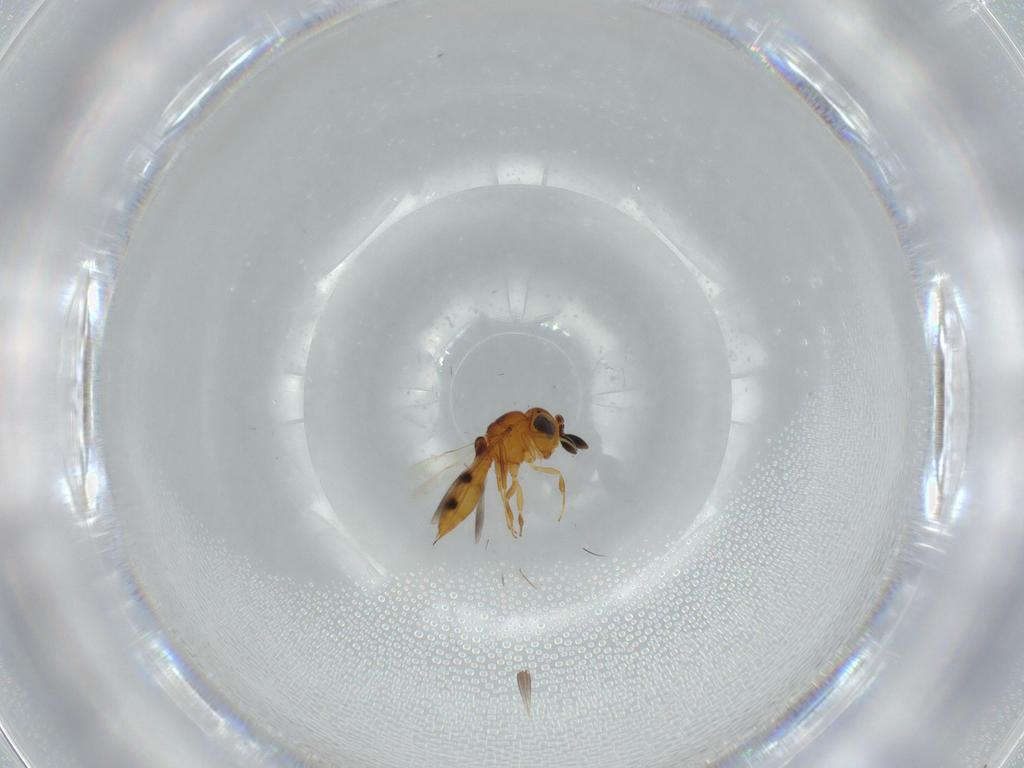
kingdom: Animalia
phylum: Arthropoda
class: Insecta
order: Hymenoptera
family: Scelionidae
